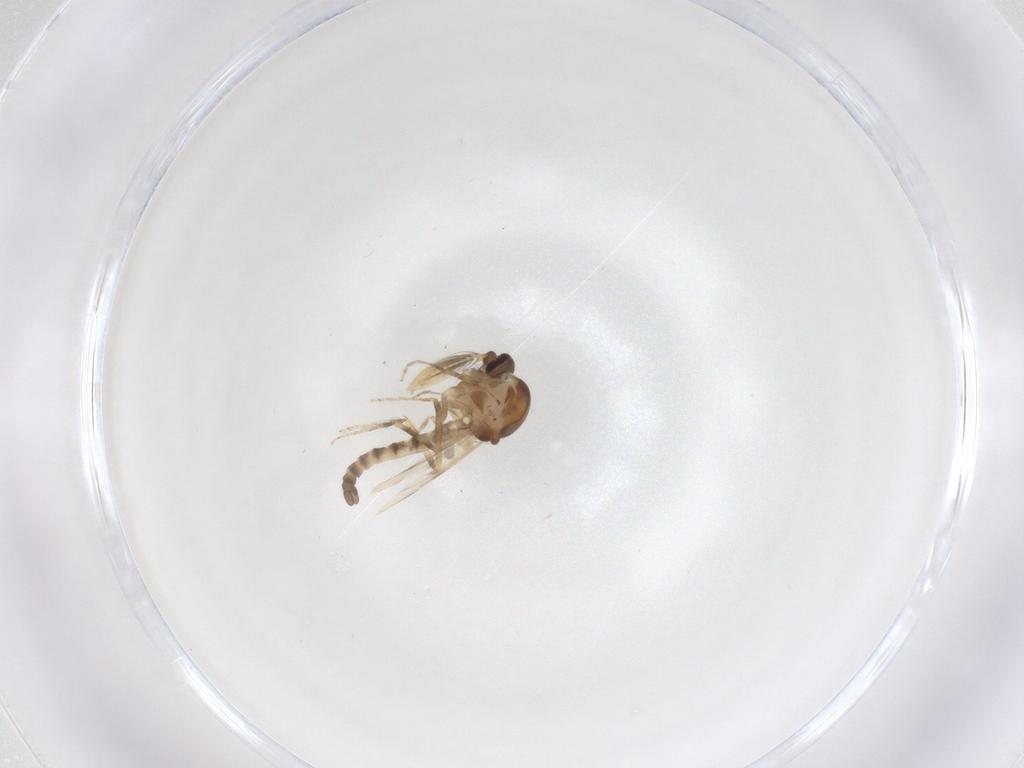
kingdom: Animalia
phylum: Arthropoda
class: Insecta
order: Diptera
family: Ceratopogonidae
